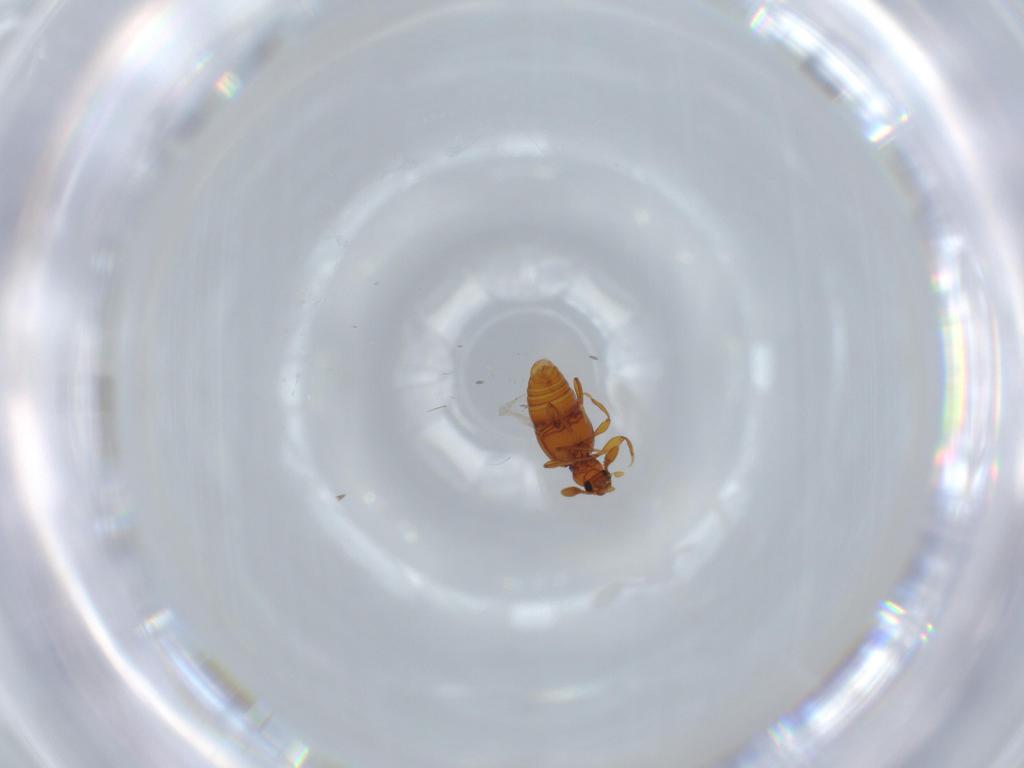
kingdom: Animalia
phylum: Arthropoda
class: Insecta
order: Coleoptera
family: Staphylinidae
